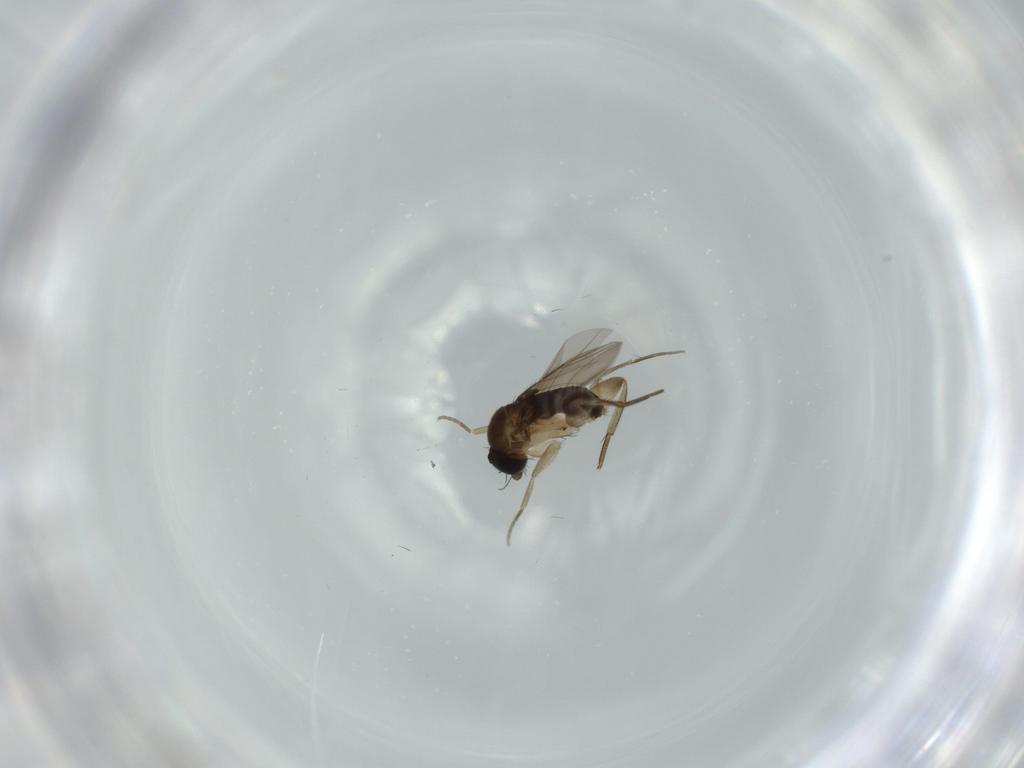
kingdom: Animalia
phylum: Arthropoda
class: Insecta
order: Diptera
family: Phoridae
